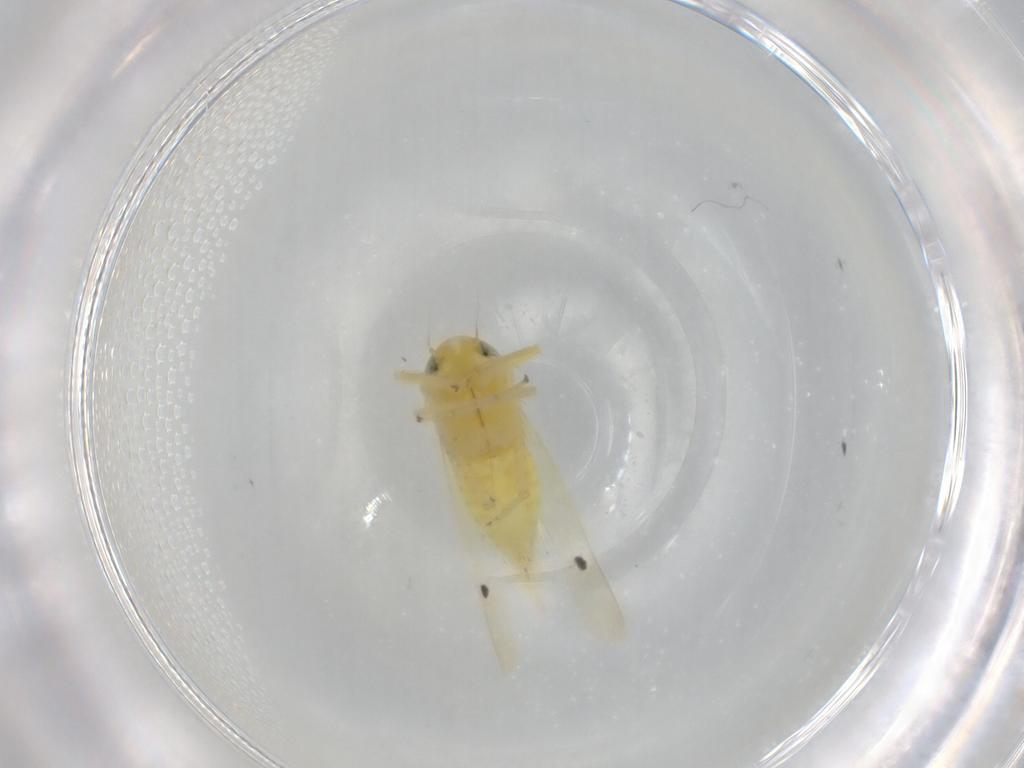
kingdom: Animalia
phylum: Arthropoda
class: Insecta
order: Hemiptera
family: Cicadellidae
